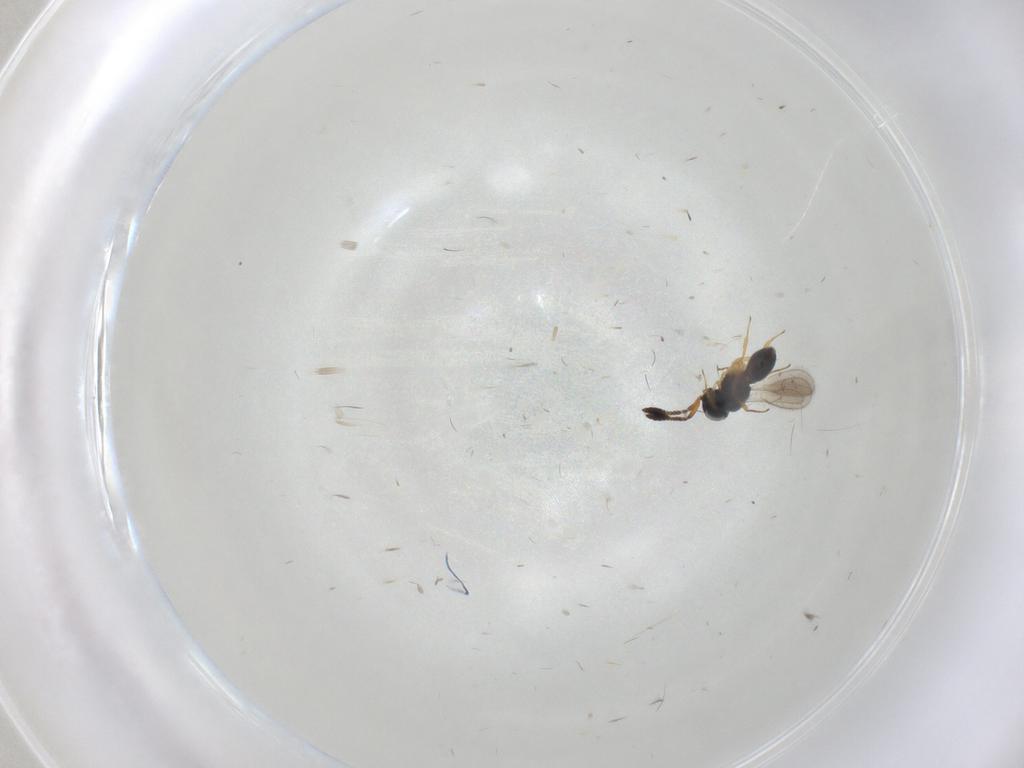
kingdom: Animalia
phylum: Arthropoda
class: Insecta
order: Hymenoptera
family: Scelionidae
